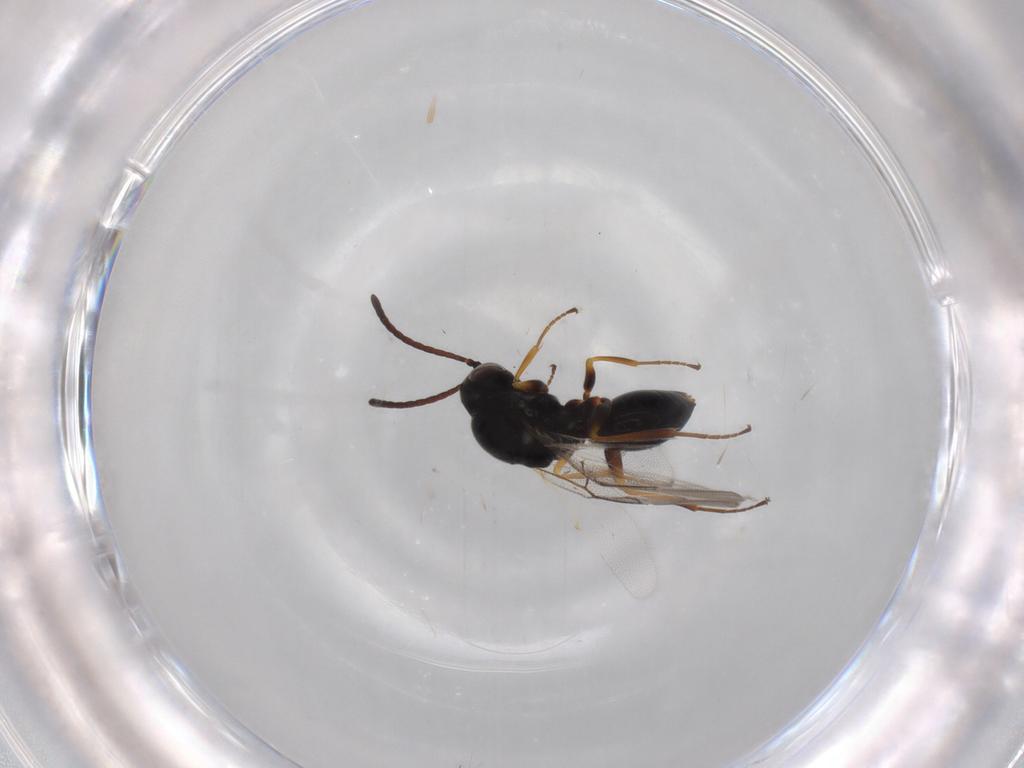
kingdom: Animalia
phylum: Arthropoda
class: Insecta
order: Hymenoptera
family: Figitidae
